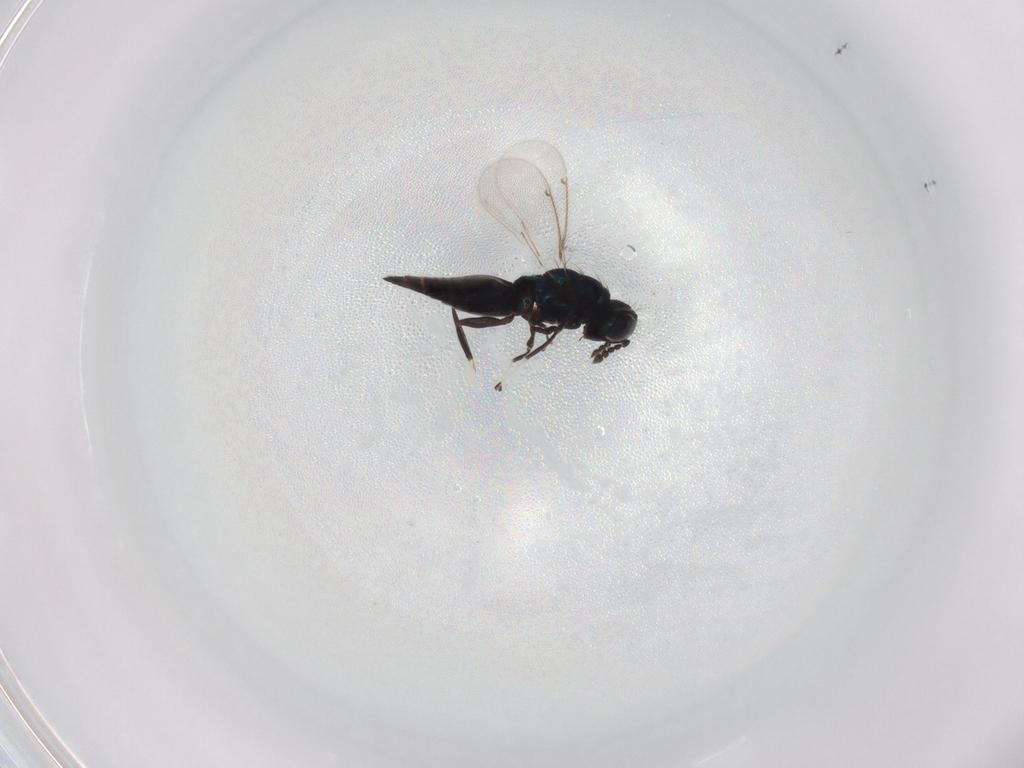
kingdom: Animalia
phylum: Arthropoda
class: Insecta
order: Hymenoptera
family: Eulophidae
